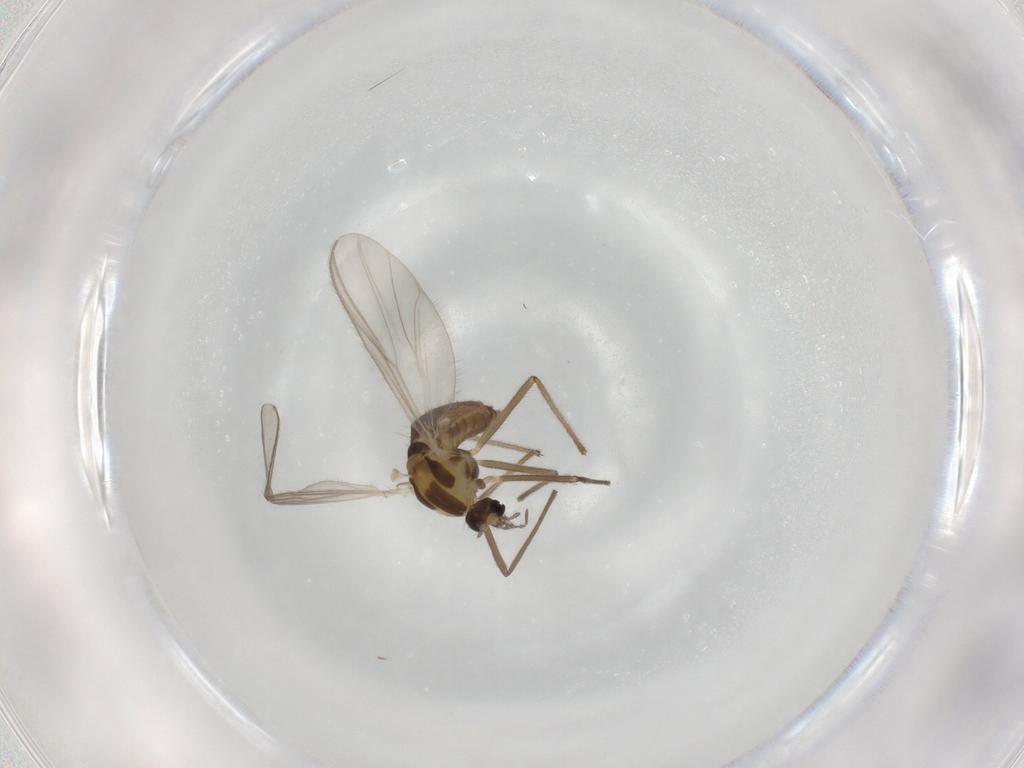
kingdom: Animalia
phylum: Arthropoda
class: Insecta
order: Diptera
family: Chironomidae
